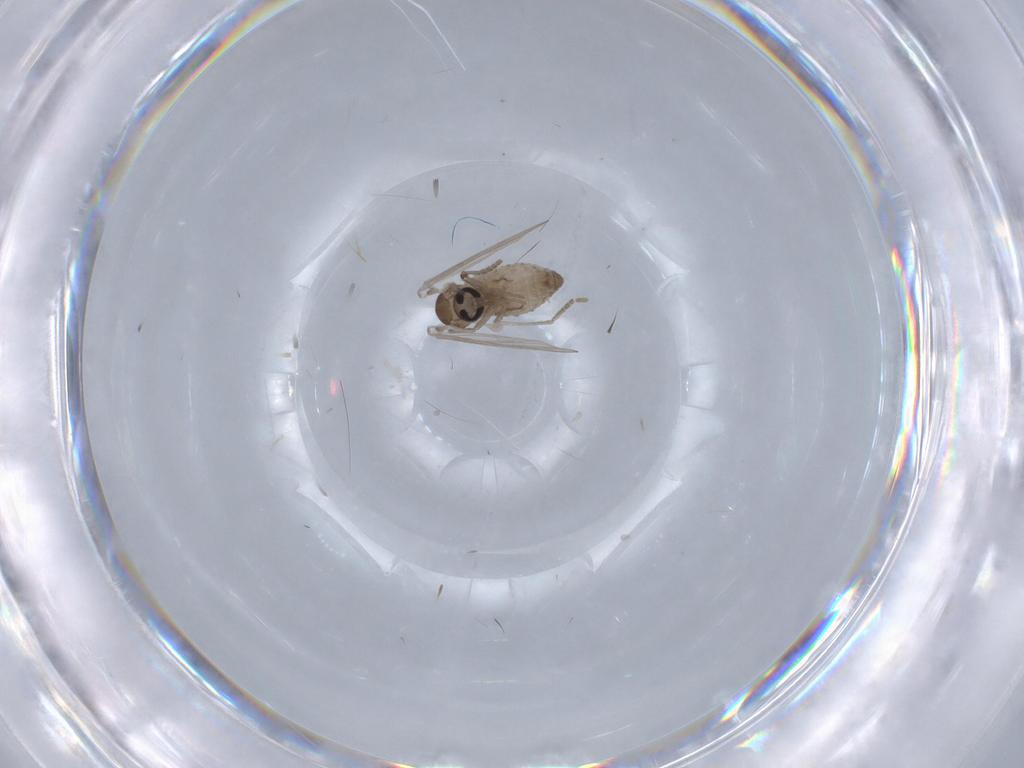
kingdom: Animalia
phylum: Arthropoda
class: Insecta
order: Diptera
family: Psychodidae
